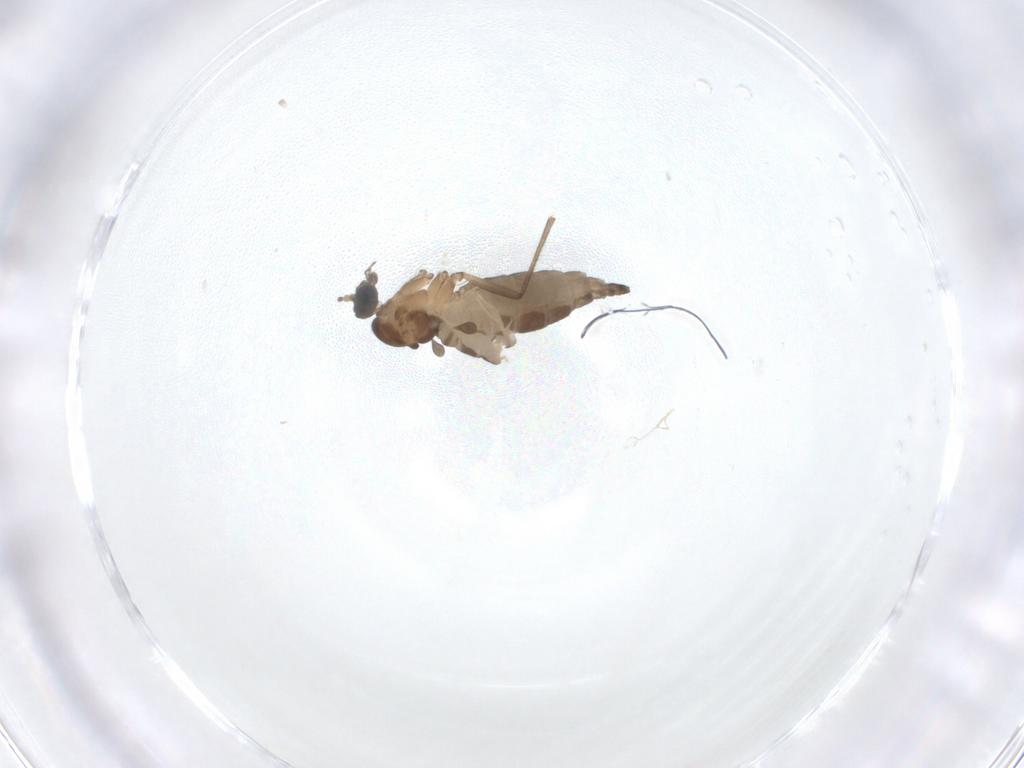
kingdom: Animalia
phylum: Arthropoda
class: Insecta
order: Diptera
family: Sciaridae
